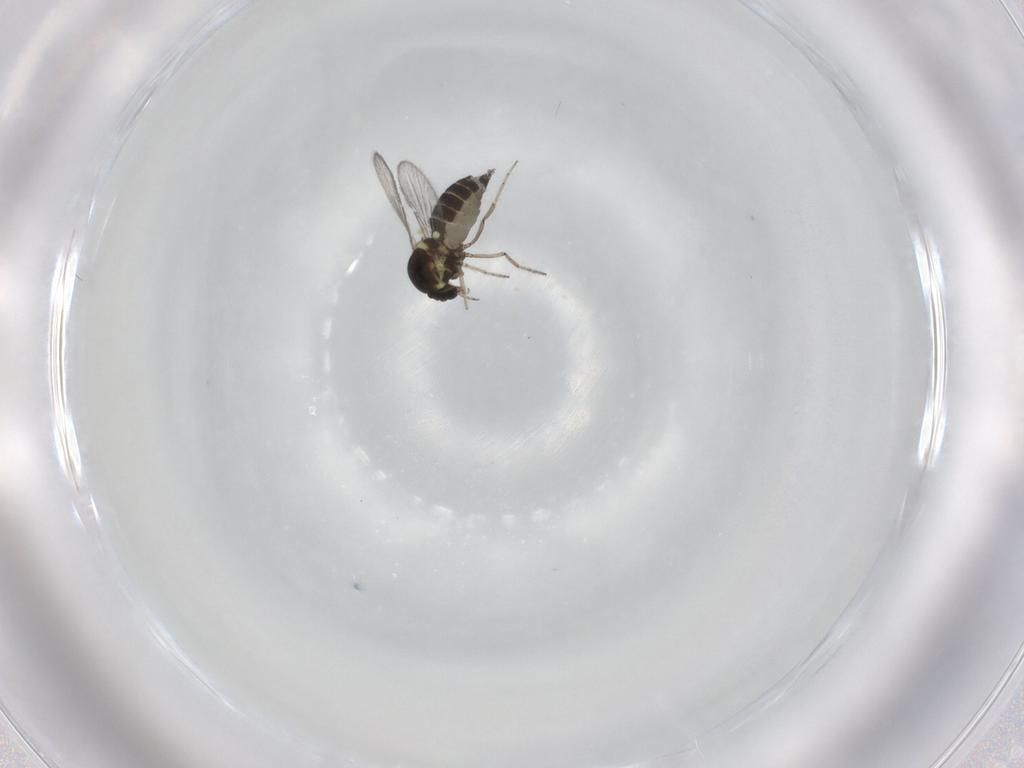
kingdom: Animalia
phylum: Arthropoda
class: Insecta
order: Diptera
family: Ceratopogonidae
